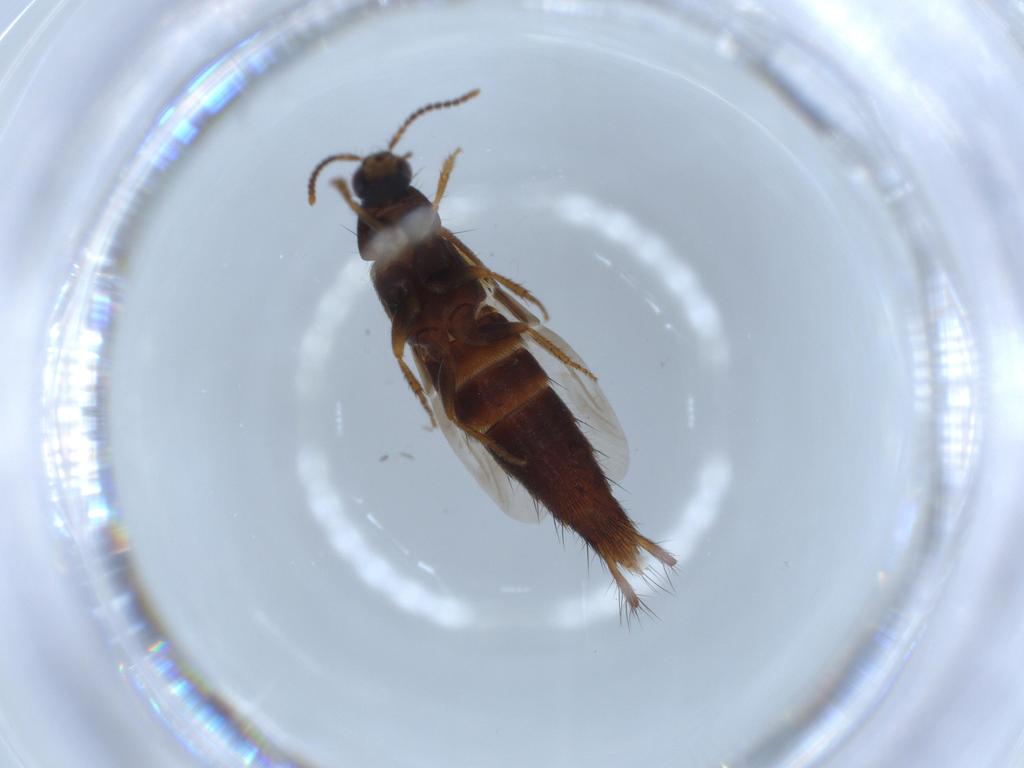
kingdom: Animalia
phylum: Arthropoda
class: Insecta
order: Coleoptera
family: Staphylinidae
